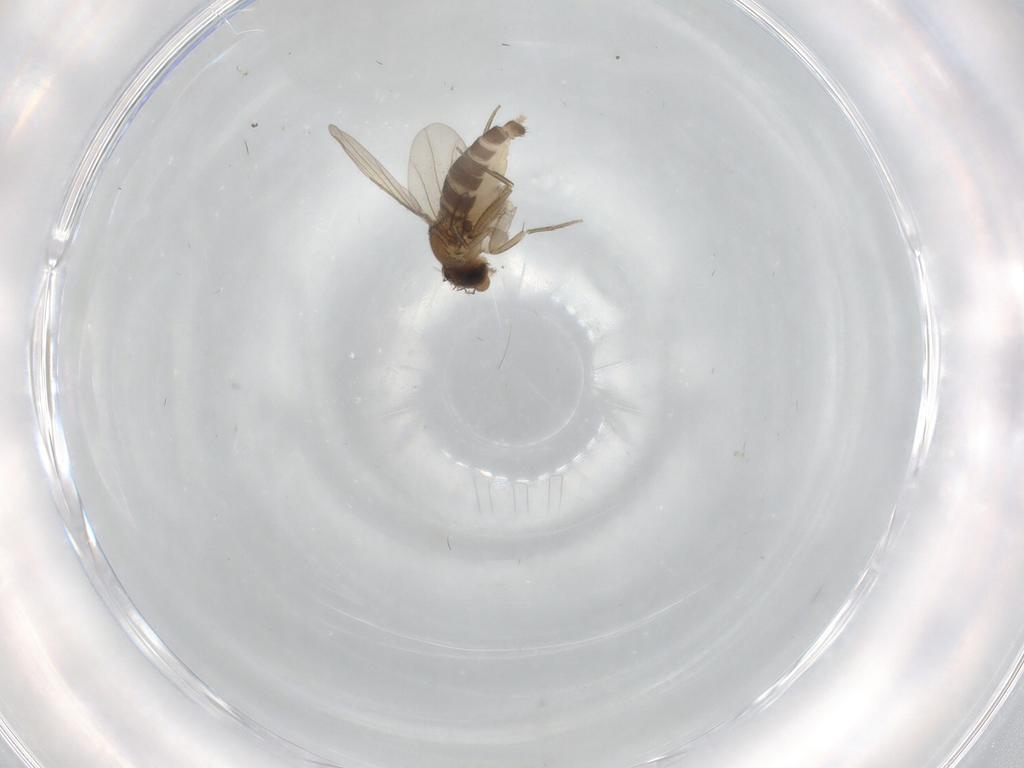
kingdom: Animalia
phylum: Arthropoda
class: Insecta
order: Diptera
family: Phoridae
